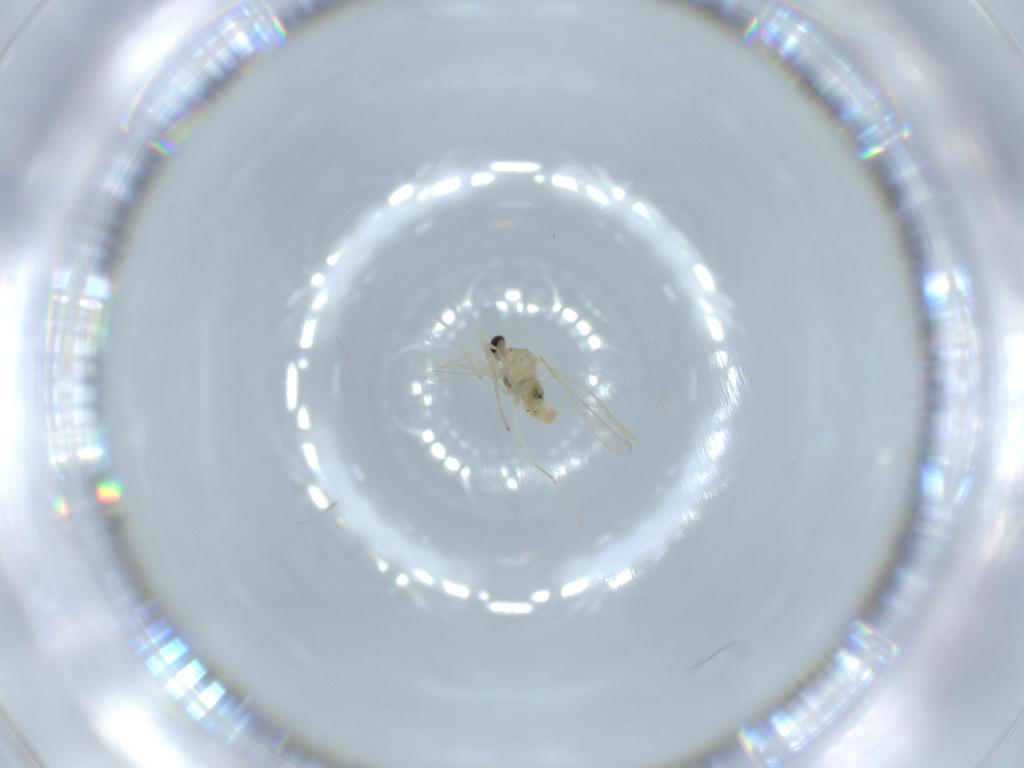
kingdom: Animalia
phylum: Arthropoda
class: Insecta
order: Diptera
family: Cecidomyiidae
